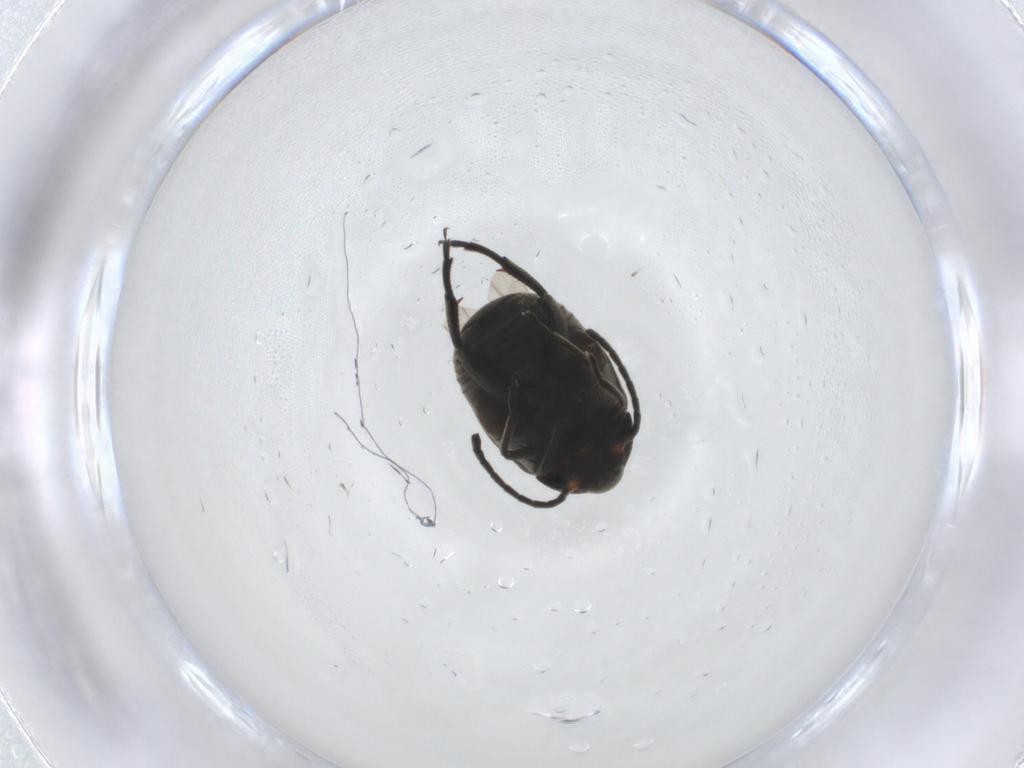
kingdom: Animalia
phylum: Arthropoda
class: Insecta
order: Coleoptera
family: Chrysomelidae
